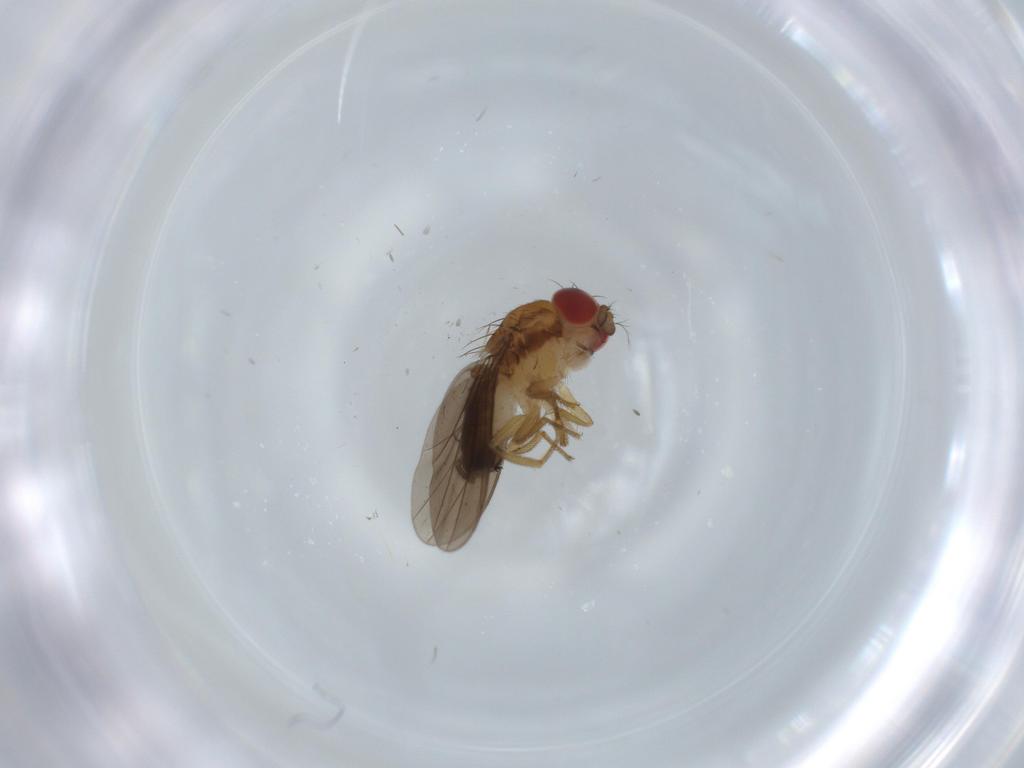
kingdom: Animalia
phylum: Arthropoda
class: Insecta
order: Diptera
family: Drosophilidae
